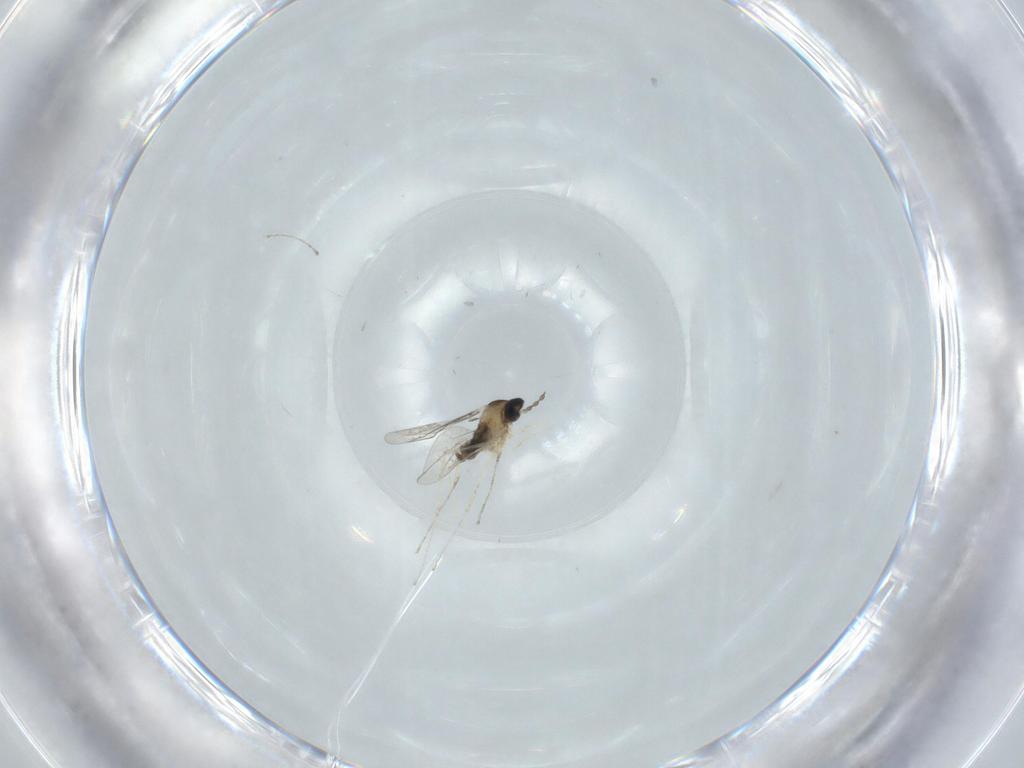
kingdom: Animalia
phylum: Arthropoda
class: Insecta
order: Diptera
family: Cecidomyiidae
